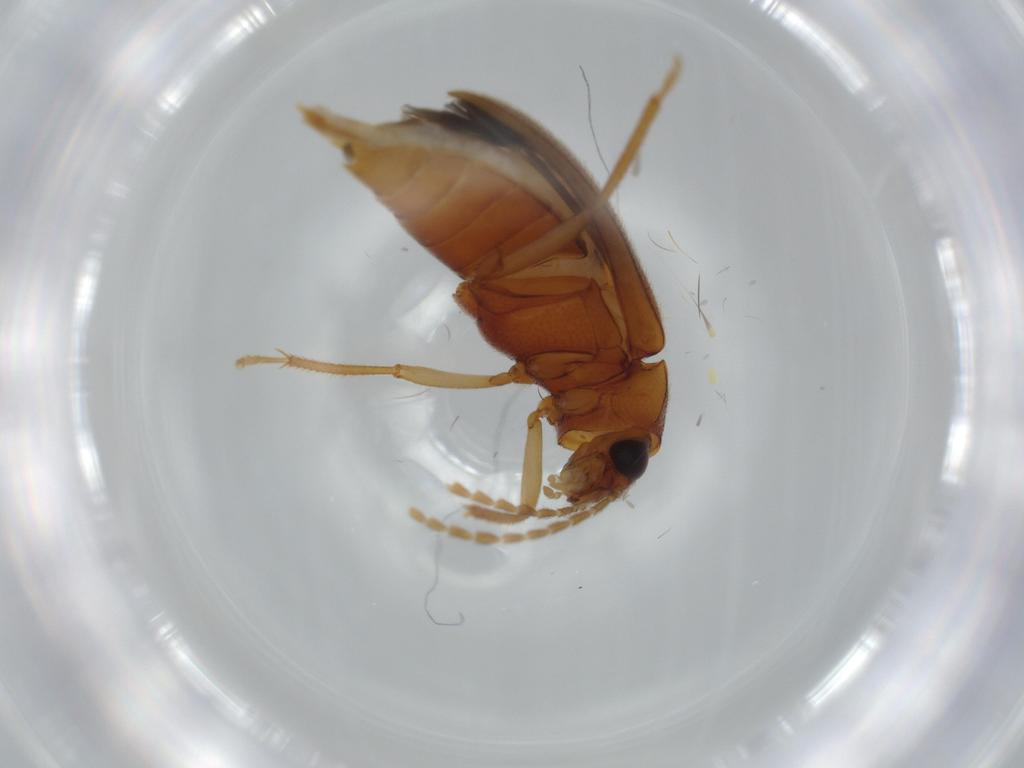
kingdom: Animalia
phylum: Arthropoda
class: Insecta
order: Coleoptera
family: Ptilodactylidae
